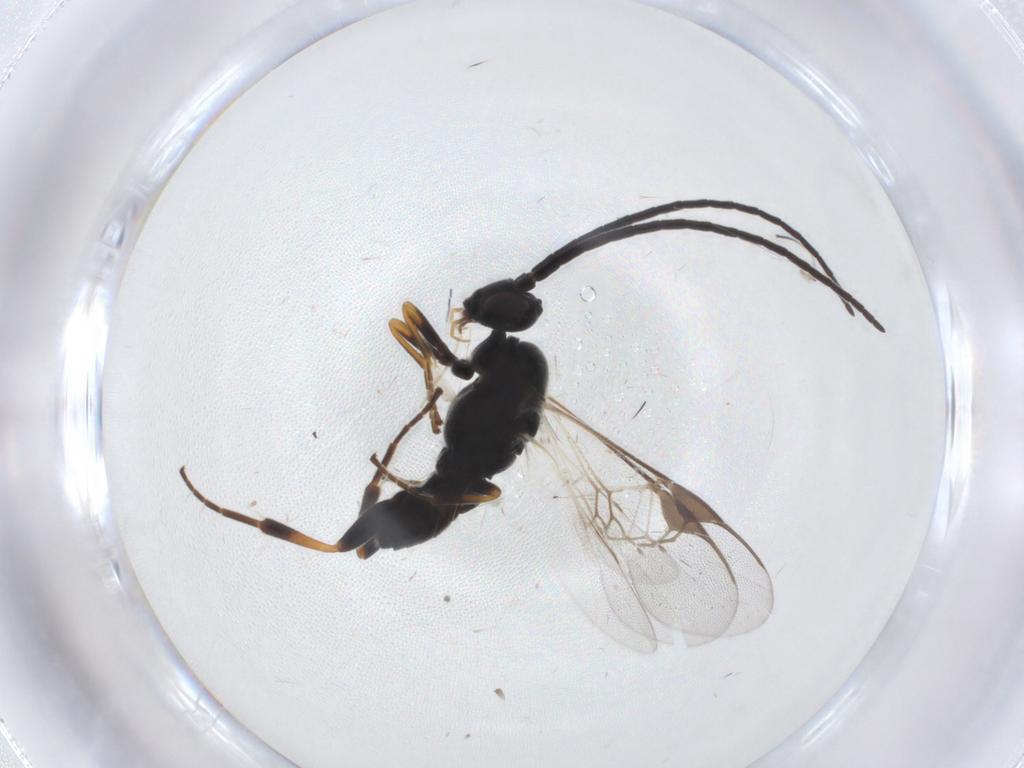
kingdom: Animalia
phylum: Arthropoda
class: Insecta
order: Hymenoptera
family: Braconidae
